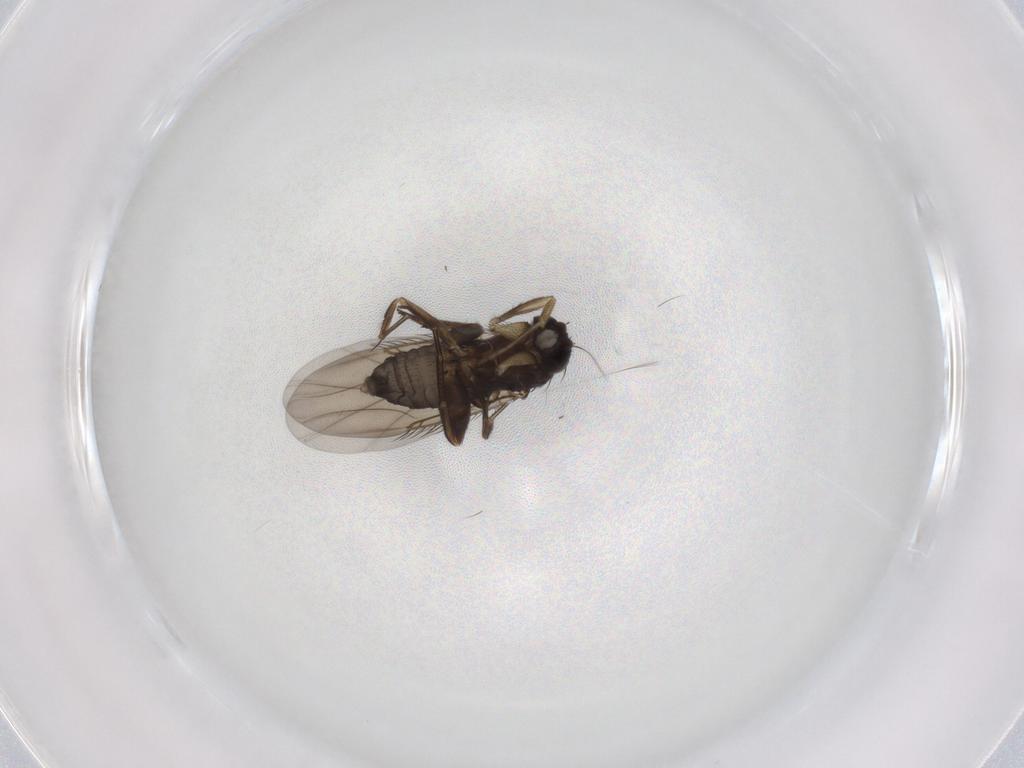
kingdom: Animalia
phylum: Arthropoda
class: Insecta
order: Diptera
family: Phoridae
